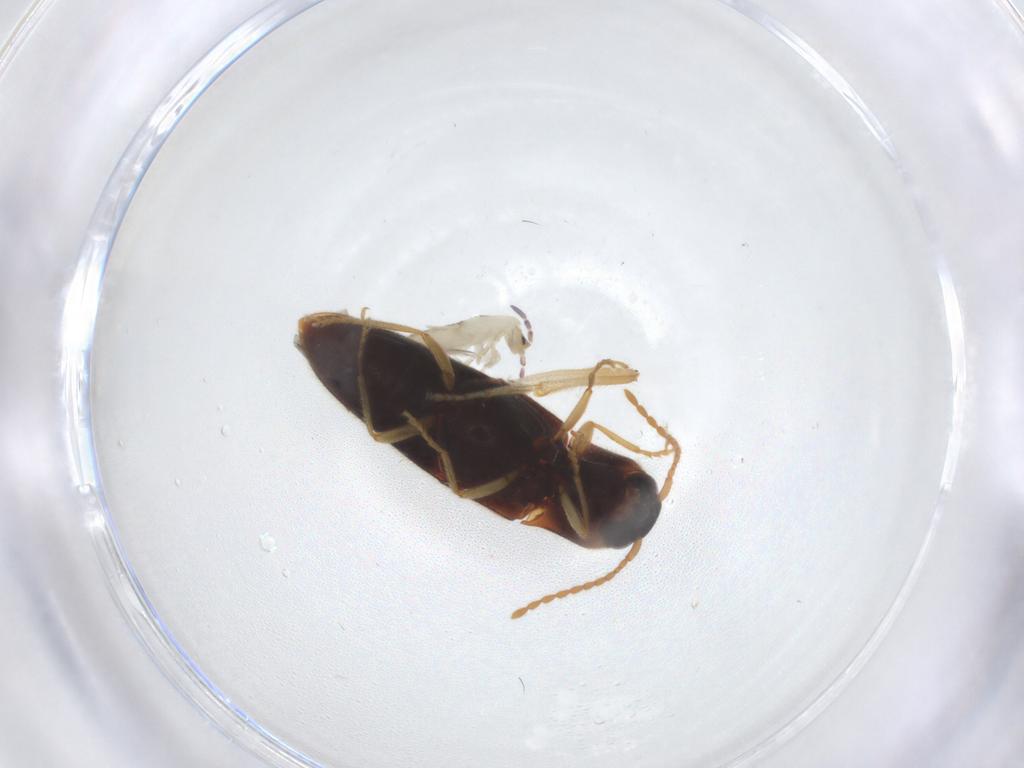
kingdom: Animalia
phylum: Arthropoda
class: Insecta
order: Coleoptera
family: Elateridae
